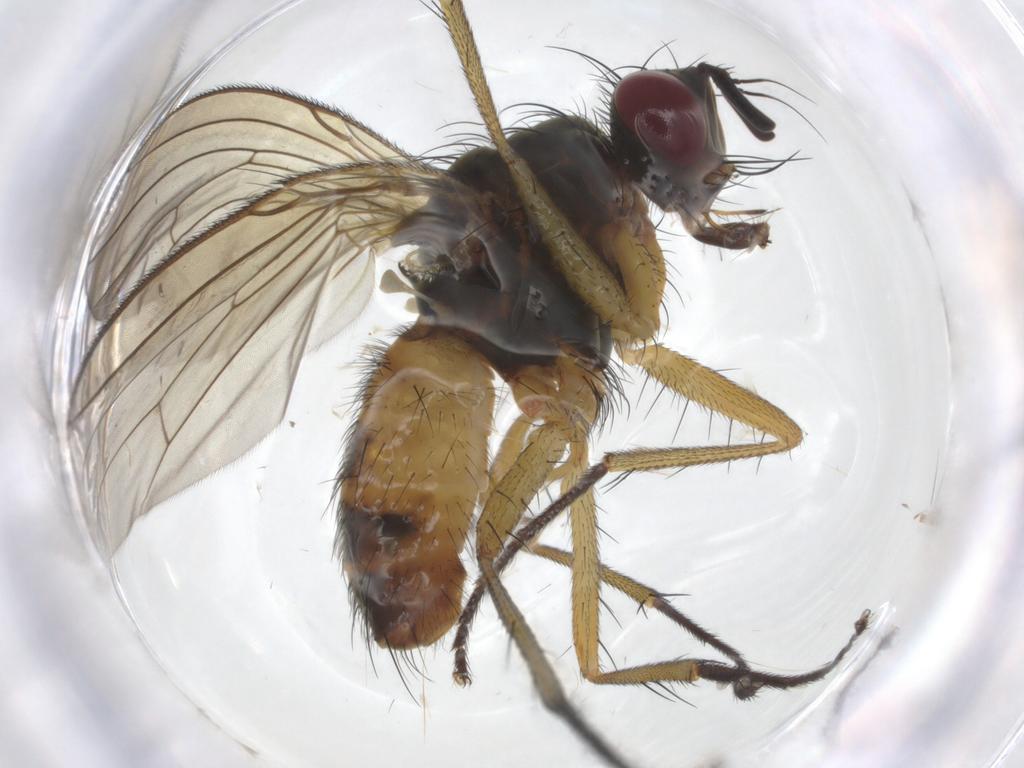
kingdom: Animalia
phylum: Arthropoda
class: Insecta
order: Diptera
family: Muscidae
